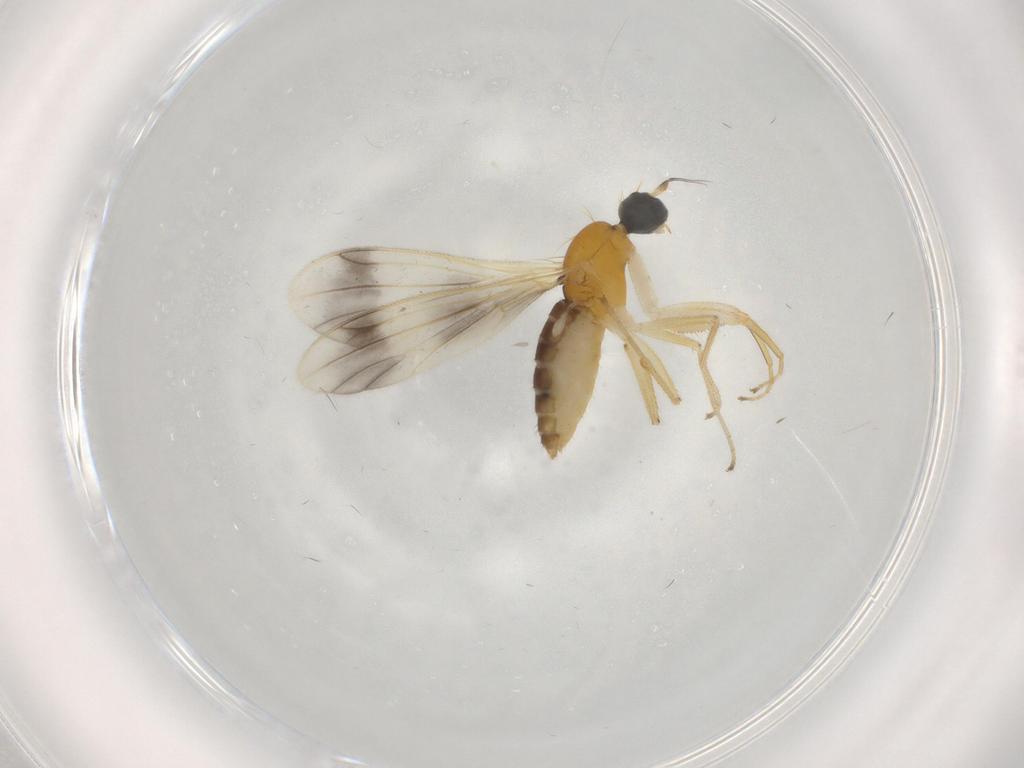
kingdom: Animalia
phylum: Arthropoda
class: Insecta
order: Diptera
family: Empididae
